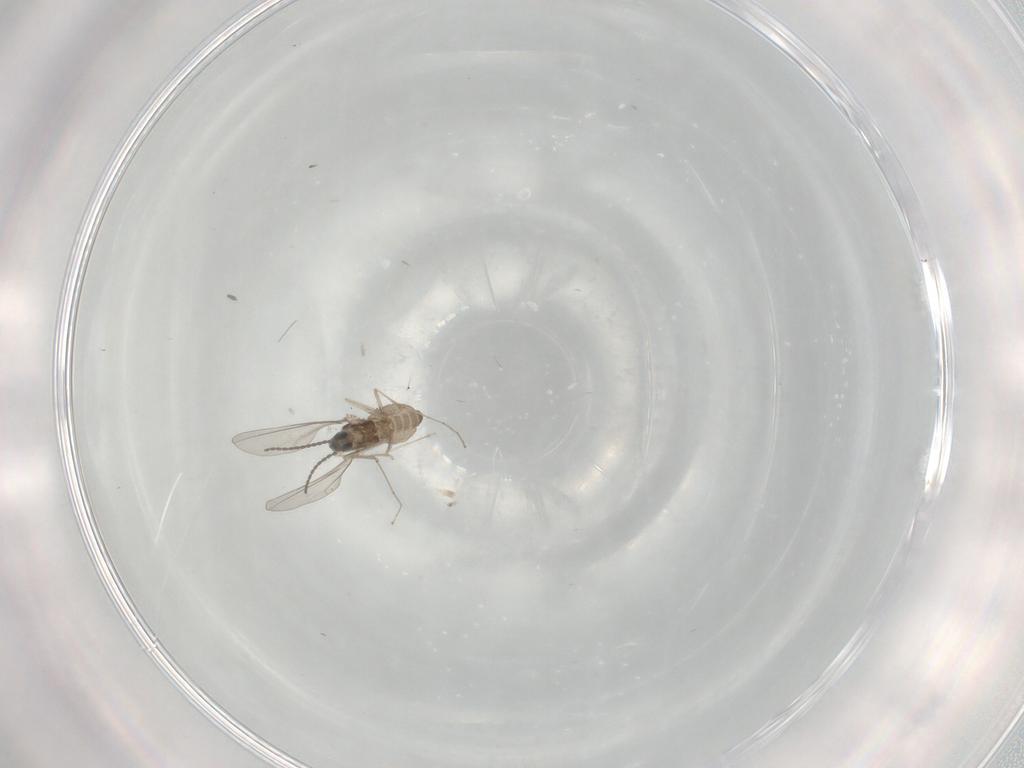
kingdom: Animalia
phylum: Arthropoda
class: Insecta
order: Diptera
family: Cecidomyiidae
